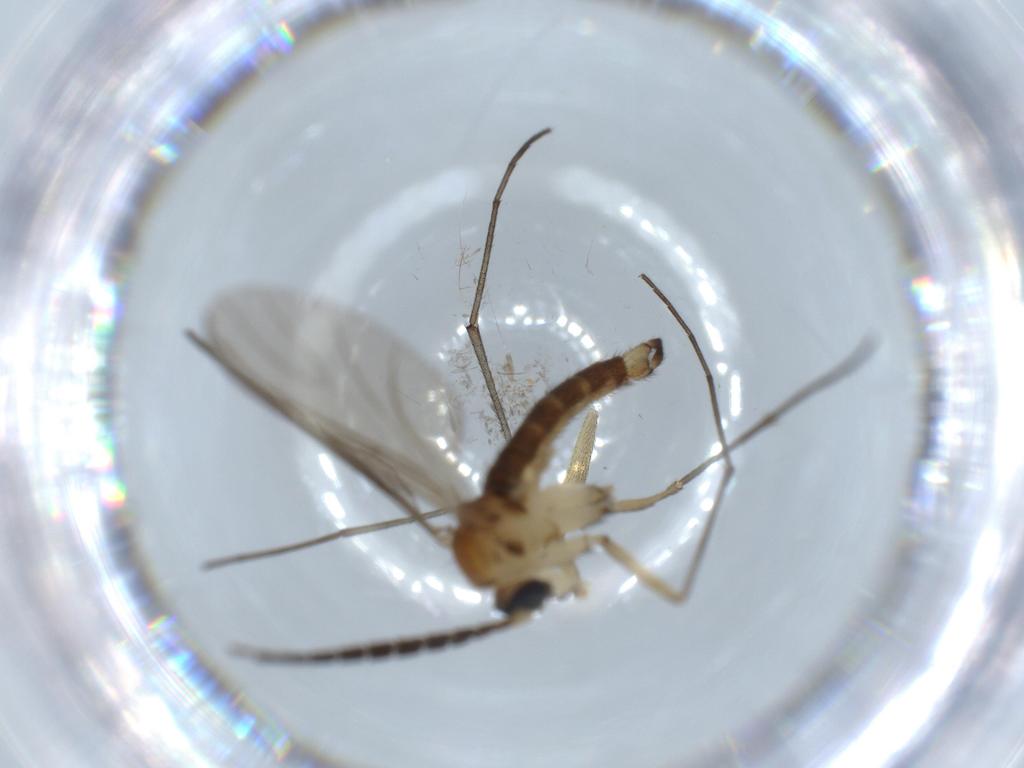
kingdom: Animalia
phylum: Arthropoda
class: Insecta
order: Diptera
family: Sciaridae
